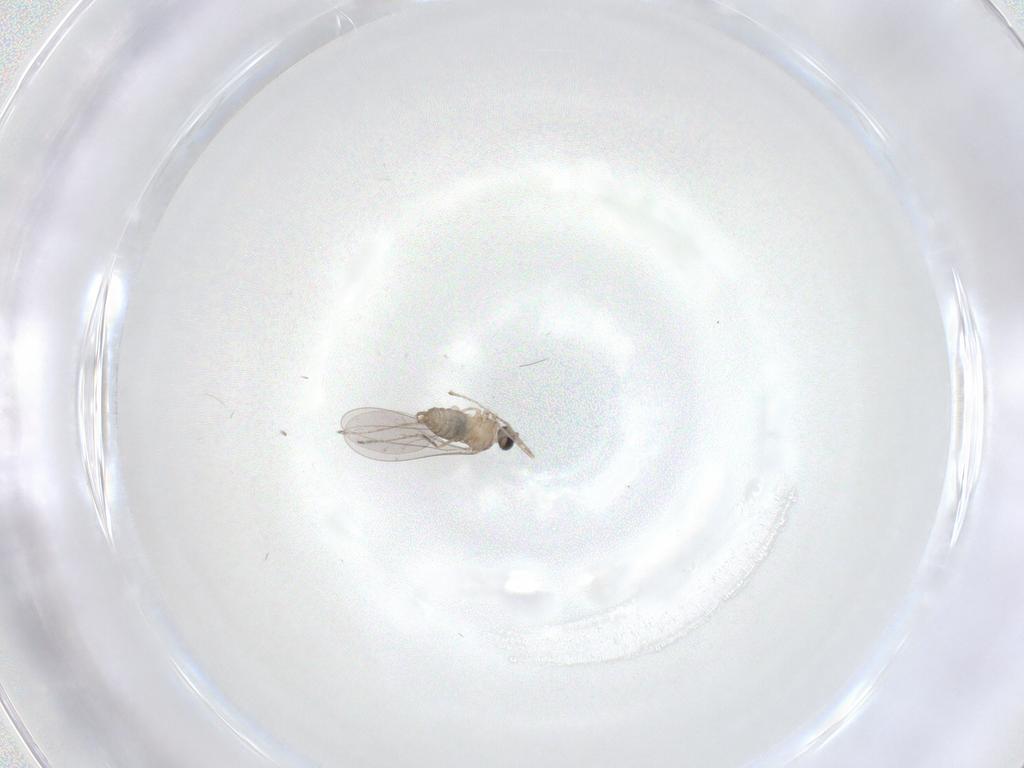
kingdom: Animalia
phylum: Arthropoda
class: Insecta
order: Diptera
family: Cecidomyiidae
